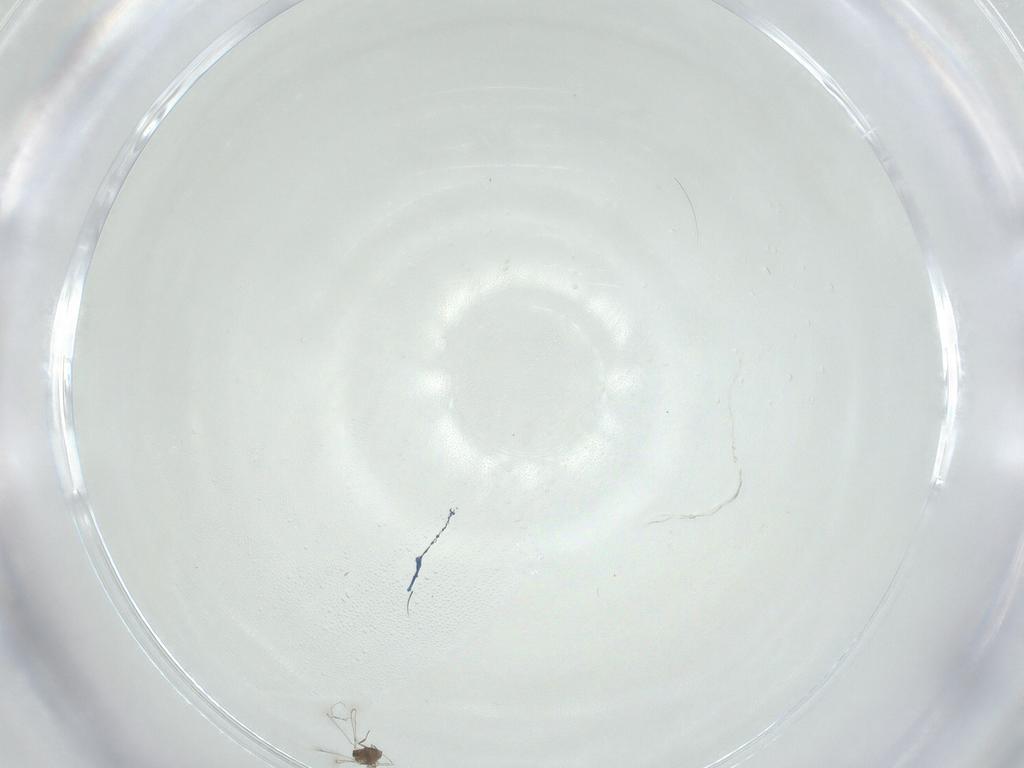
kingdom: Animalia
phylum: Arthropoda
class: Insecta
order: Hymenoptera
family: Mymaridae
